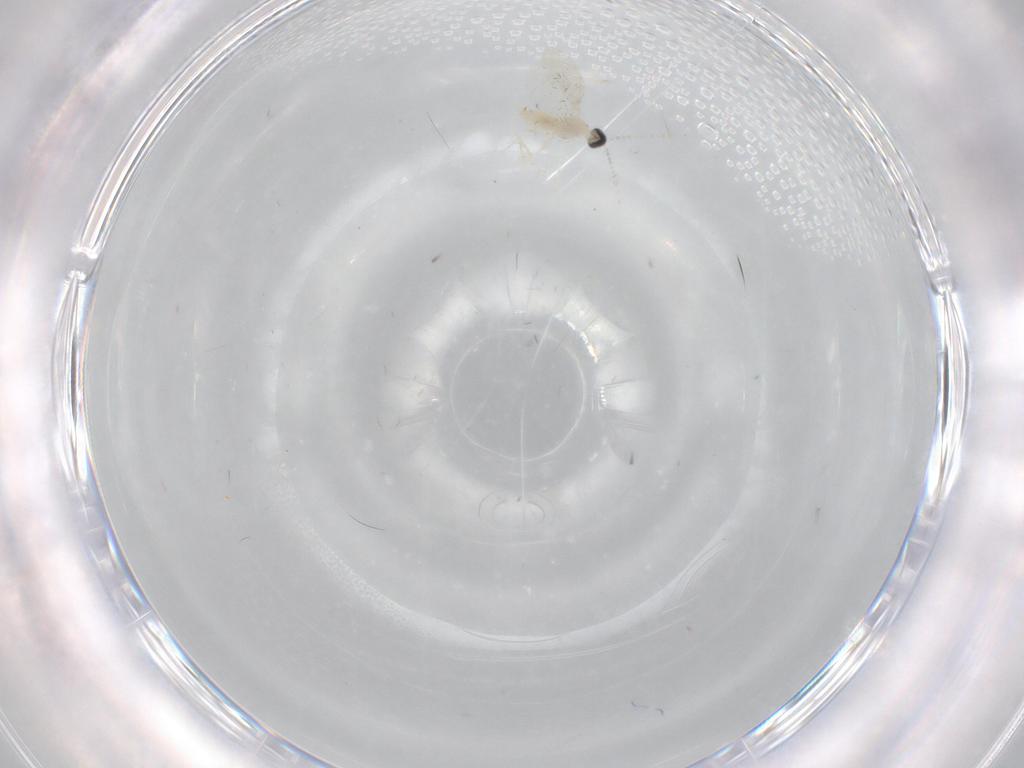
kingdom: Animalia
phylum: Arthropoda
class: Insecta
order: Diptera
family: Cecidomyiidae
